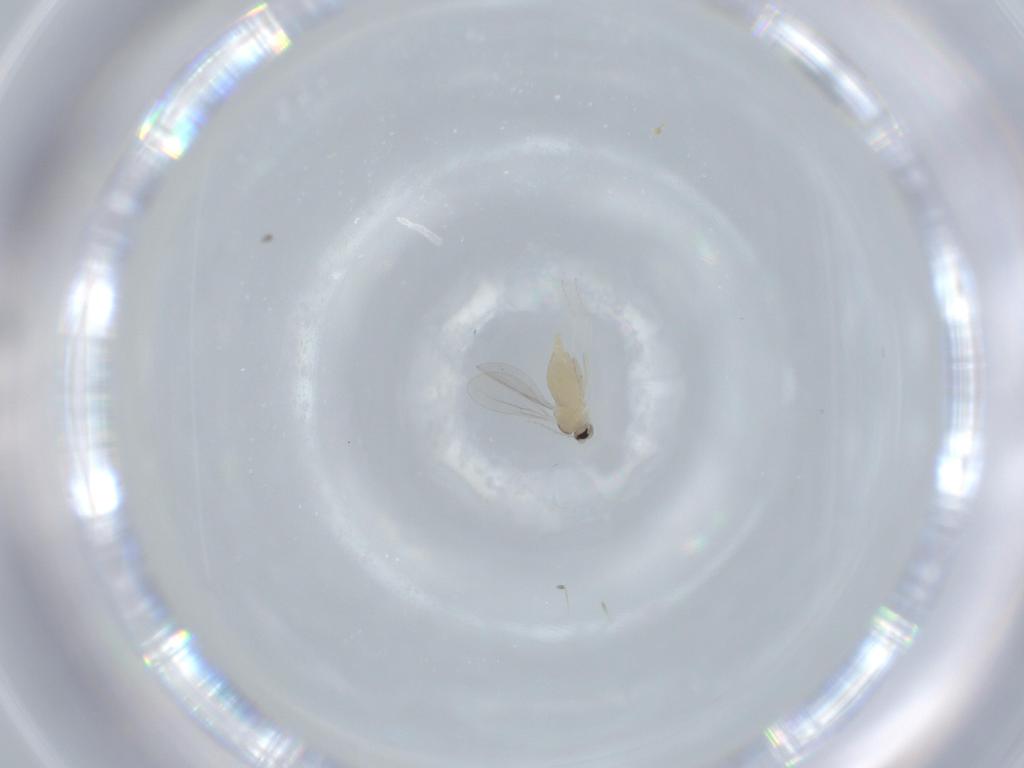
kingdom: Animalia
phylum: Arthropoda
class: Insecta
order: Diptera
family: Cecidomyiidae
